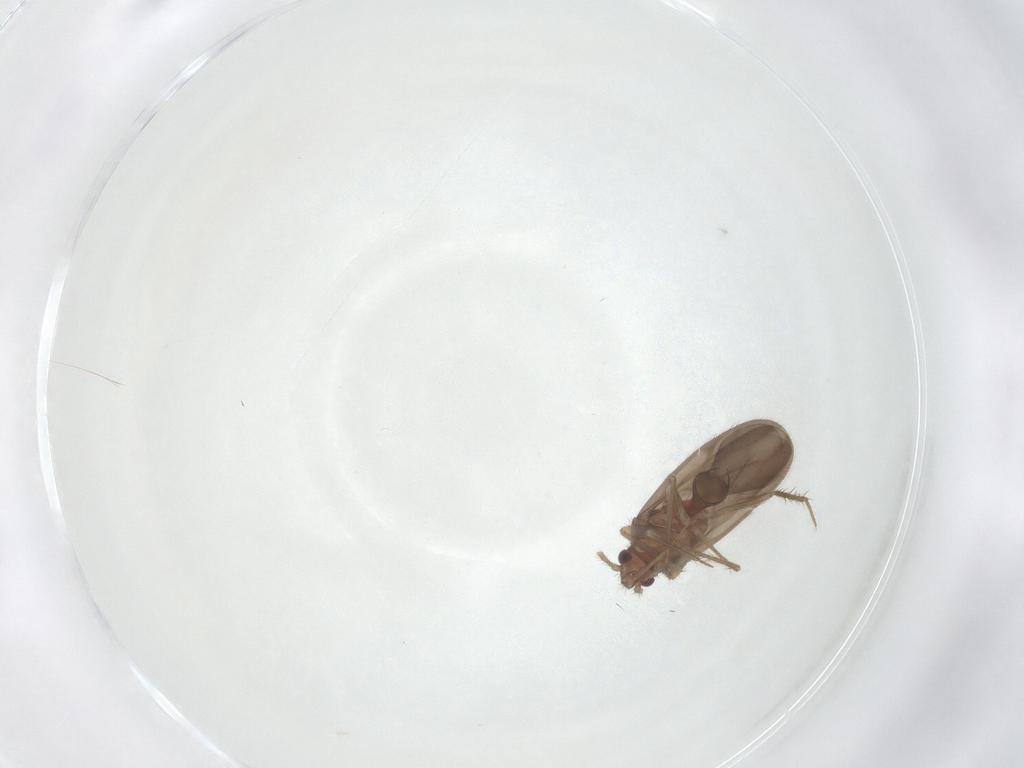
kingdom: Animalia
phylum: Arthropoda
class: Insecta
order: Hemiptera
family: Ceratocombidae
